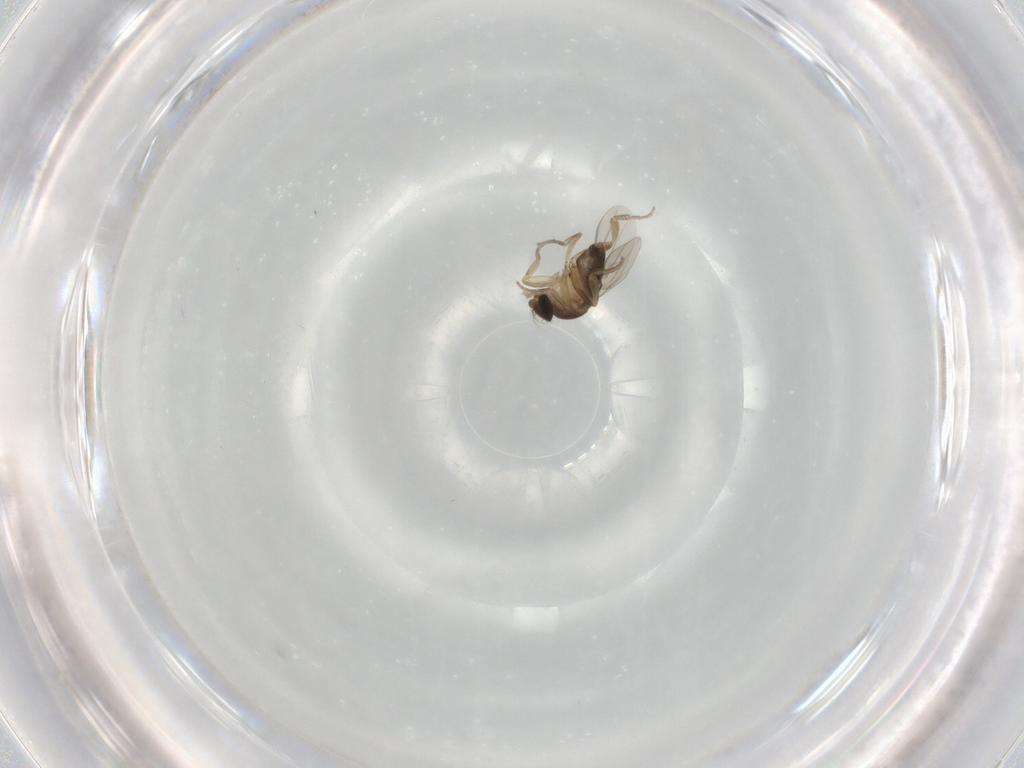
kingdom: Animalia
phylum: Arthropoda
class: Insecta
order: Diptera
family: Phoridae
